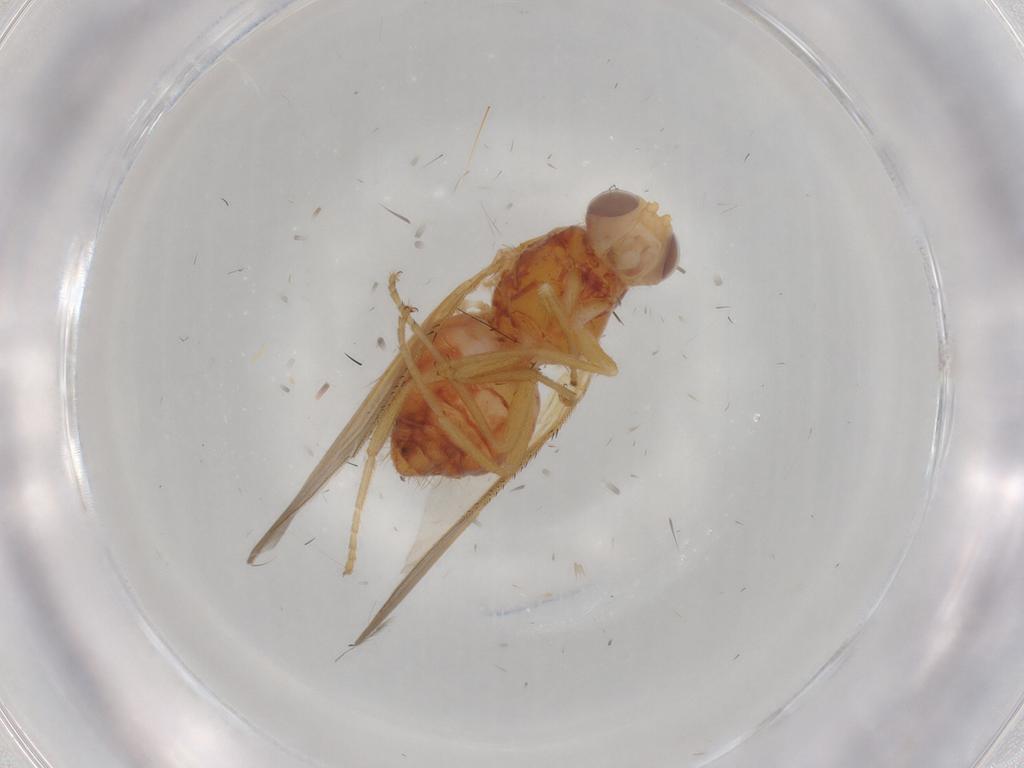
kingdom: Animalia
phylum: Arthropoda
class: Insecta
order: Diptera
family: Heleomyzidae
